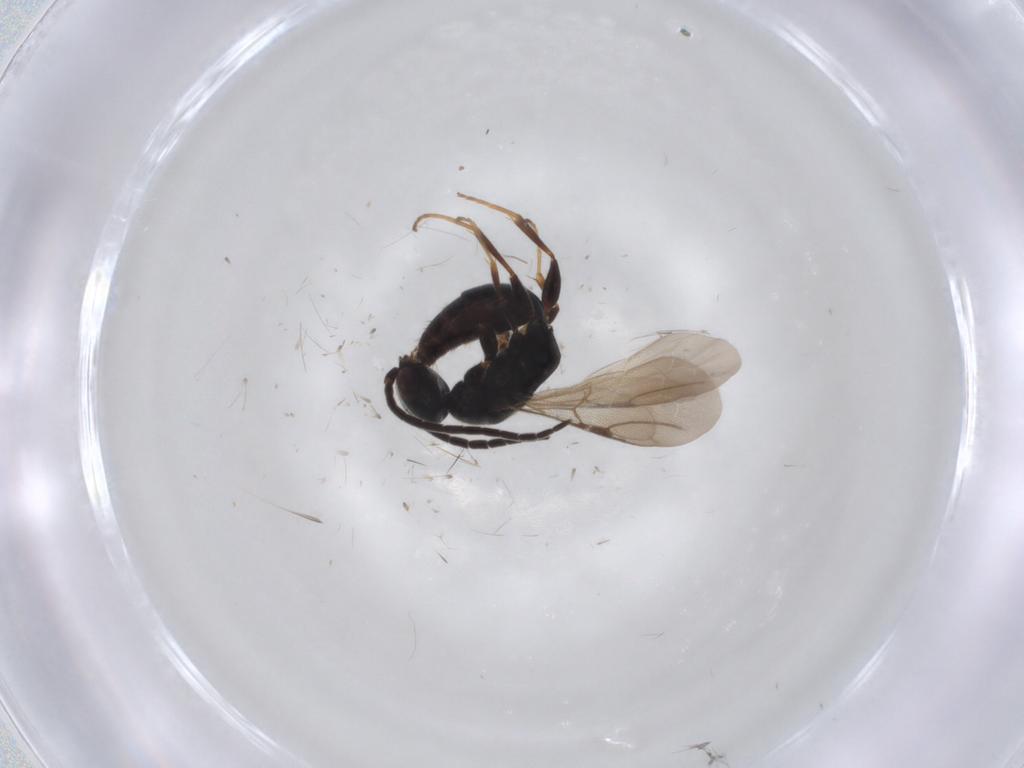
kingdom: Animalia
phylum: Arthropoda
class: Insecta
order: Hymenoptera
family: Bethylidae
